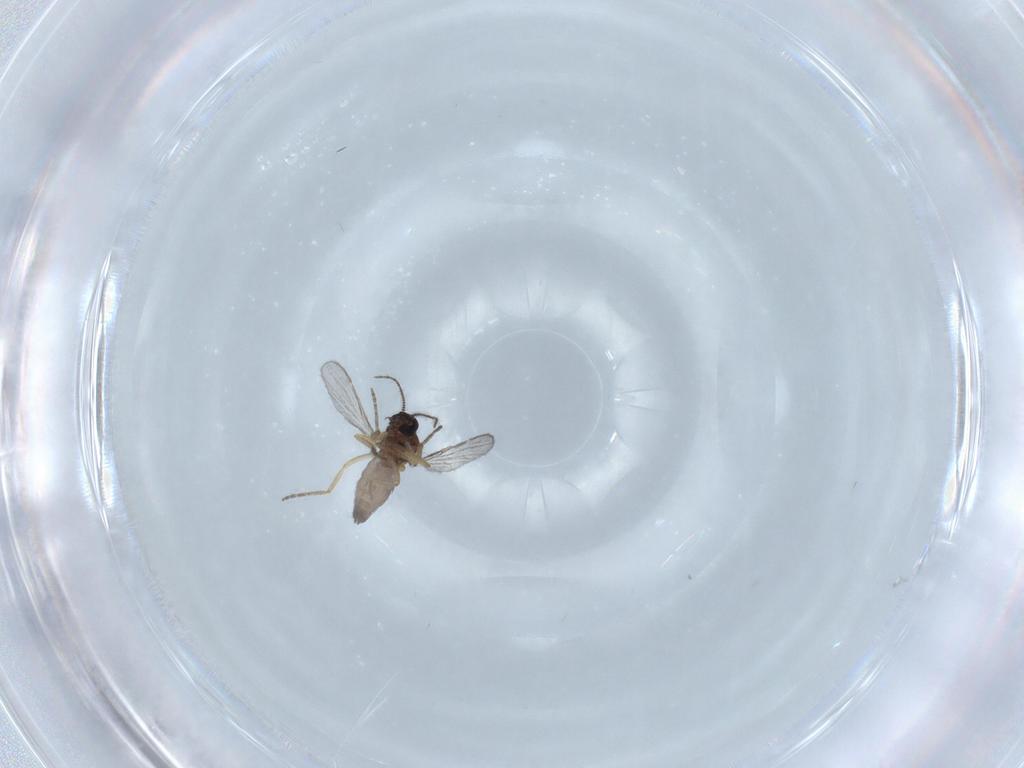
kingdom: Animalia
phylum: Arthropoda
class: Insecta
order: Diptera
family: Ceratopogonidae
